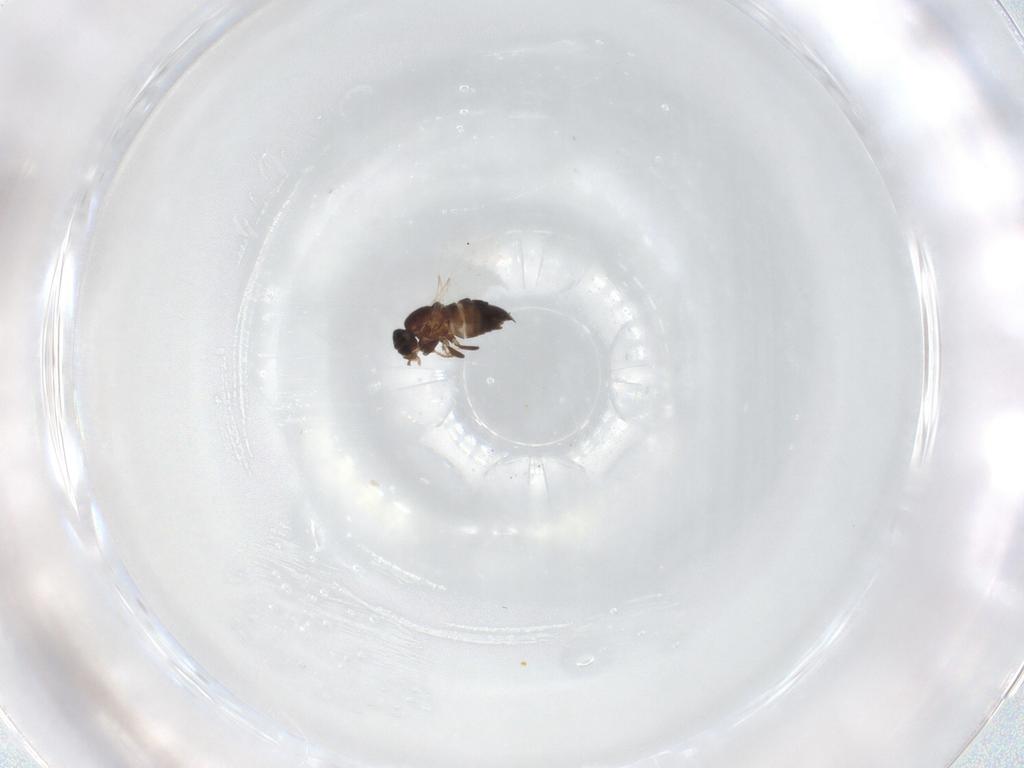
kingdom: Animalia
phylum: Arthropoda
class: Insecta
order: Diptera
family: Scatopsidae
